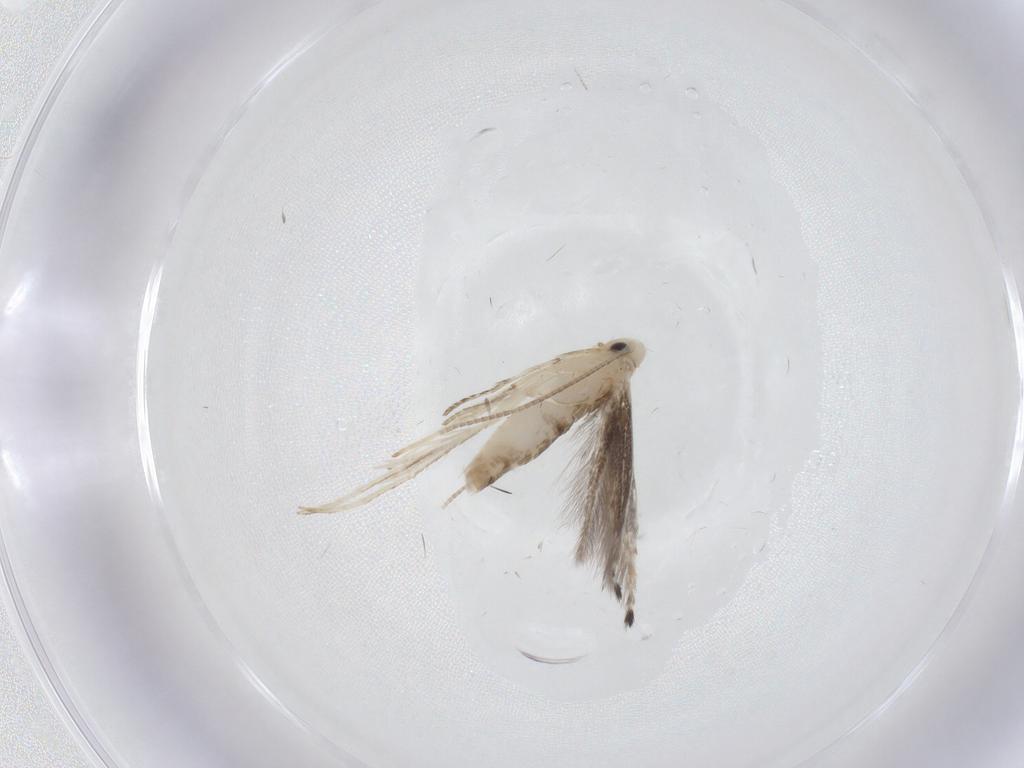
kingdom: Animalia
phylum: Arthropoda
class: Insecta
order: Lepidoptera
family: Gracillariidae
